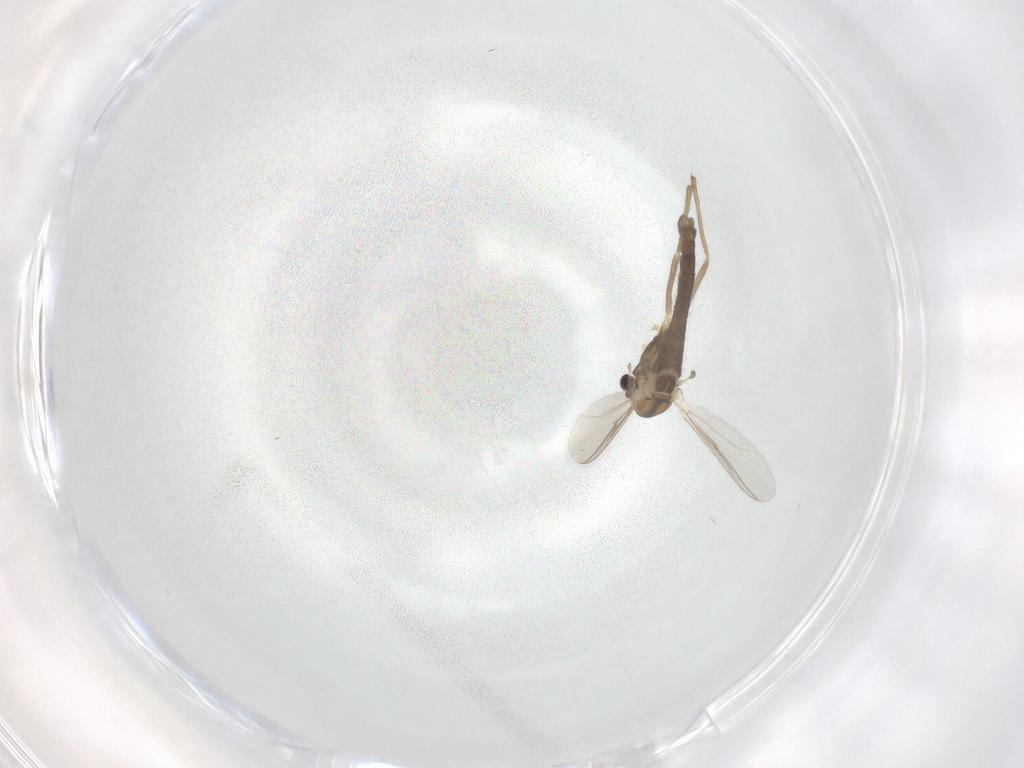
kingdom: Animalia
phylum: Arthropoda
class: Insecta
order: Diptera
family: Chironomidae
